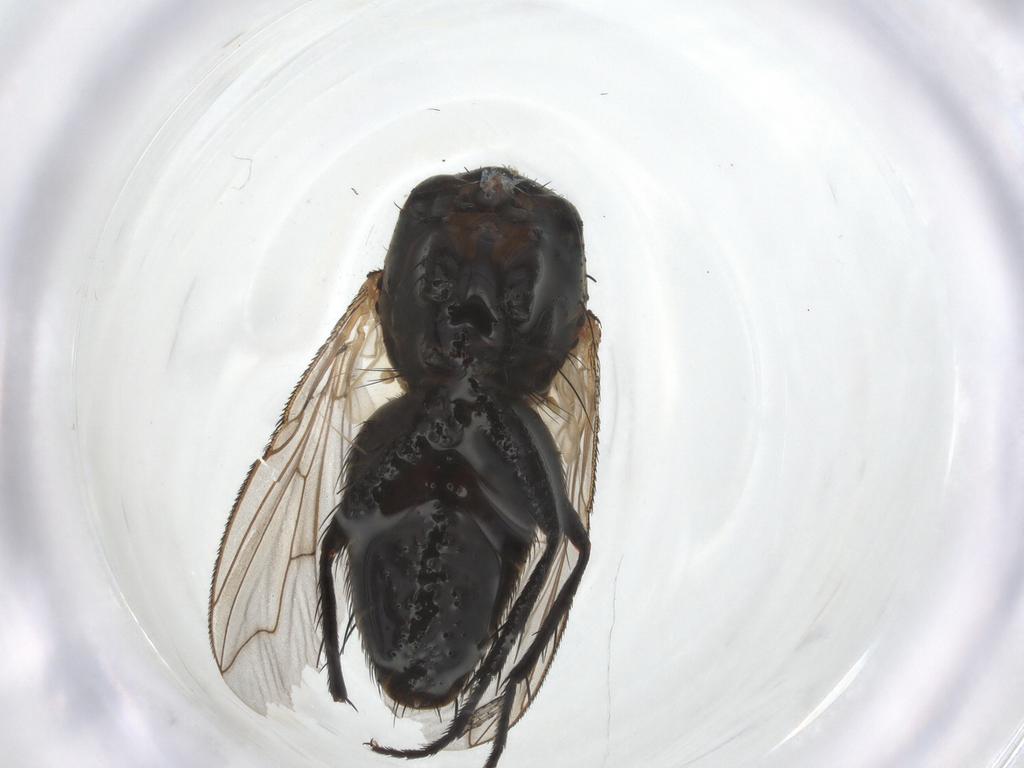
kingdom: Animalia
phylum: Arthropoda
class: Insecta
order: Diptera
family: Sarcophagidae
